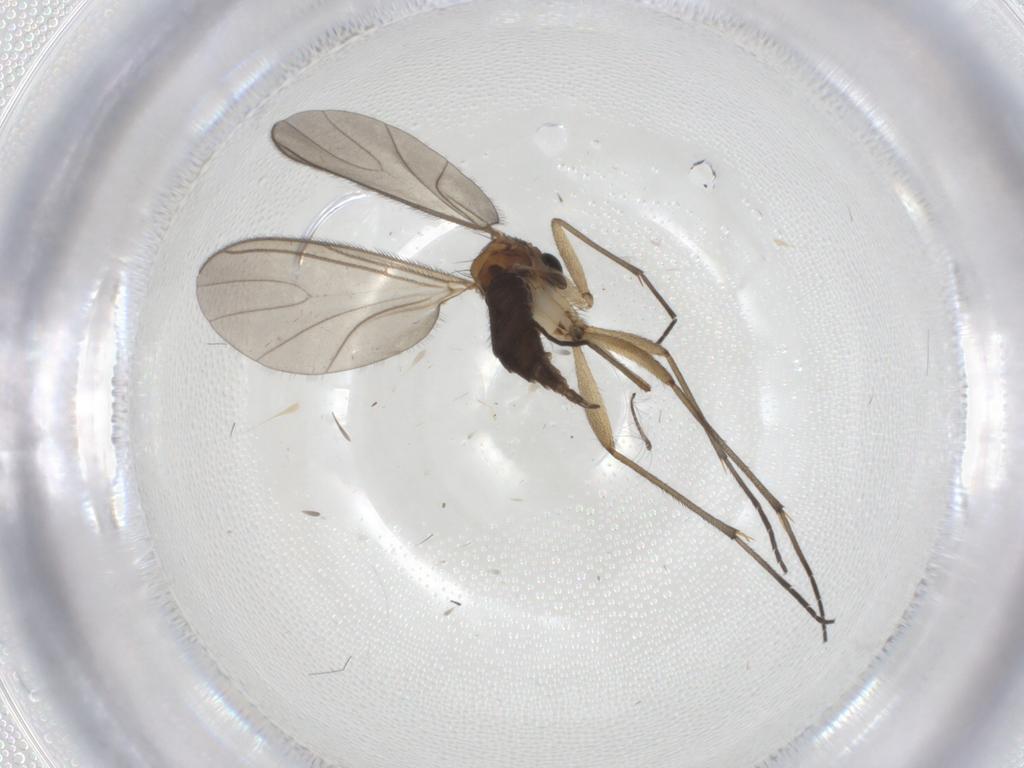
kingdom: Animalia
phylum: Arthropoda
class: Insecta
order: Diptera
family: Sciaridae
